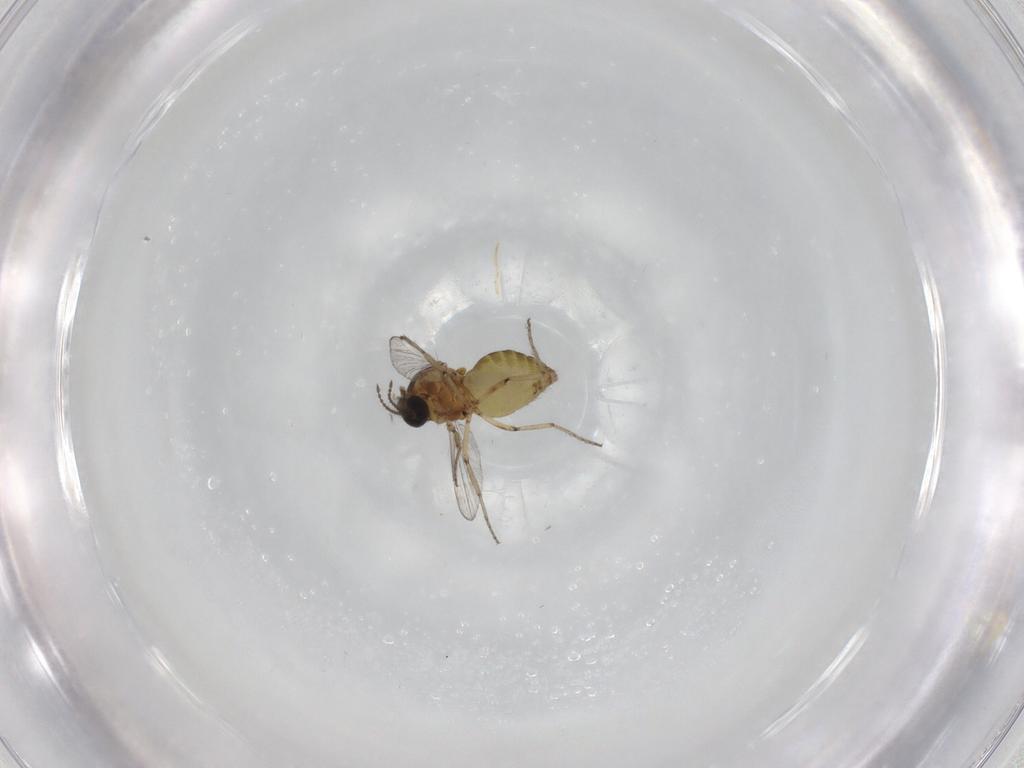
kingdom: Animalia
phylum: Arthropoda
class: Insecta
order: Diptera
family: Ceratopogonidae
